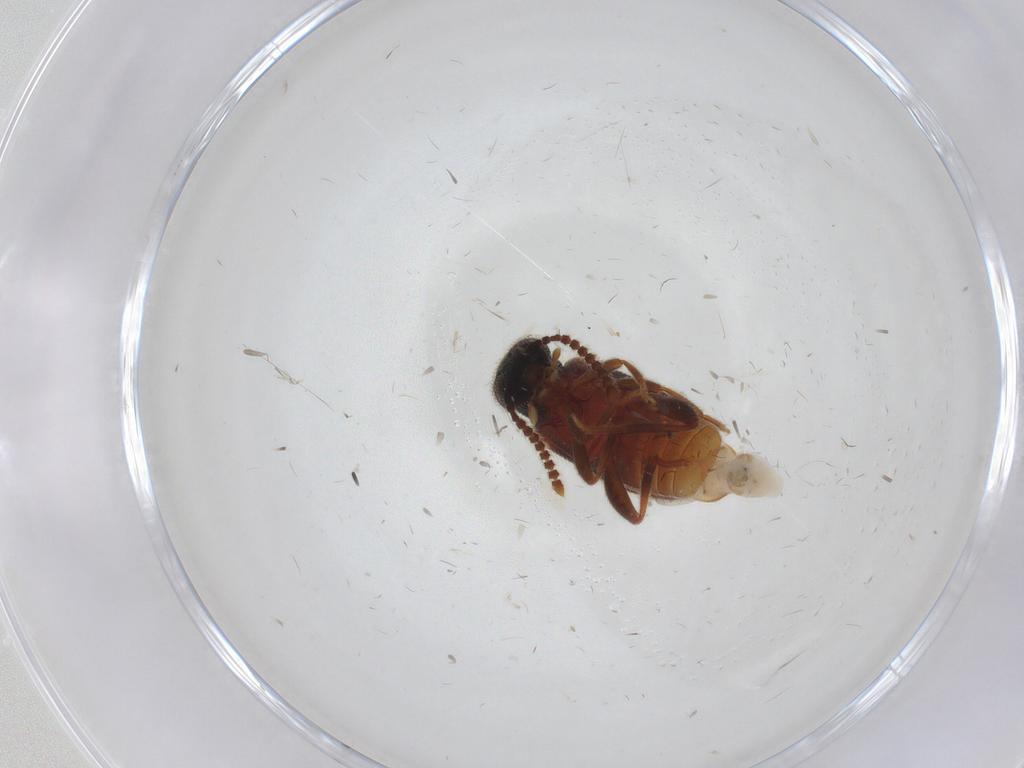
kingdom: Animalia
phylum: Arthropoda
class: Insecta
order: Coleoptera
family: Aderidae
